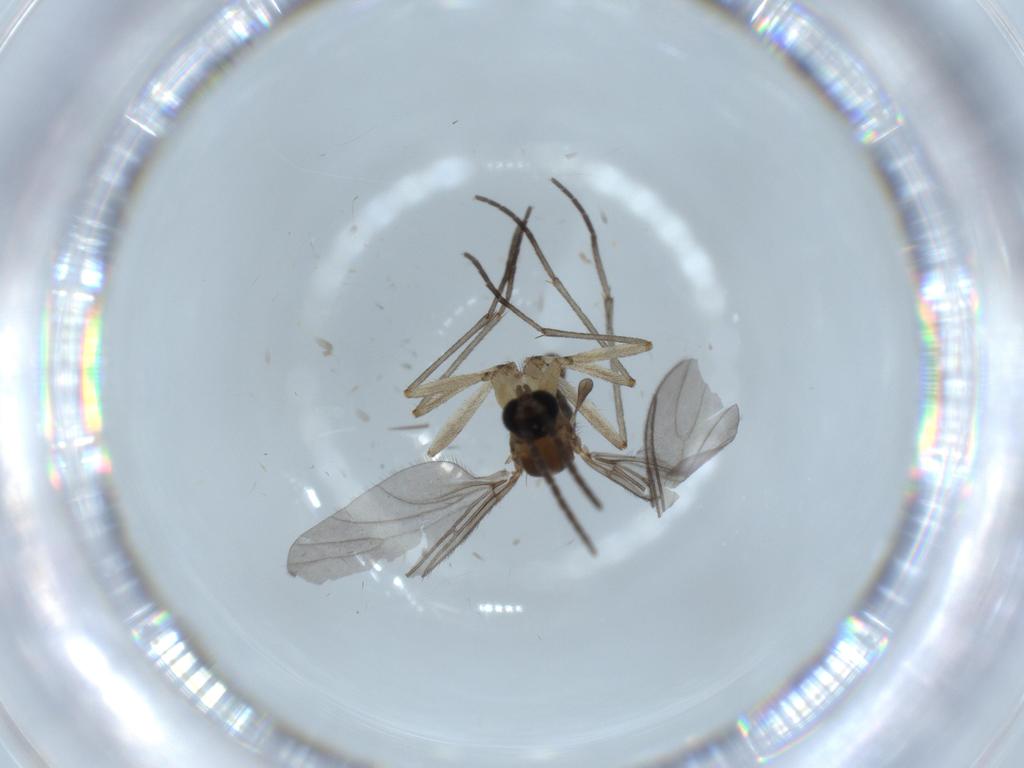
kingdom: Animalia
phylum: Arthropoda
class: Insecta
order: Diptera
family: Sciaridae
